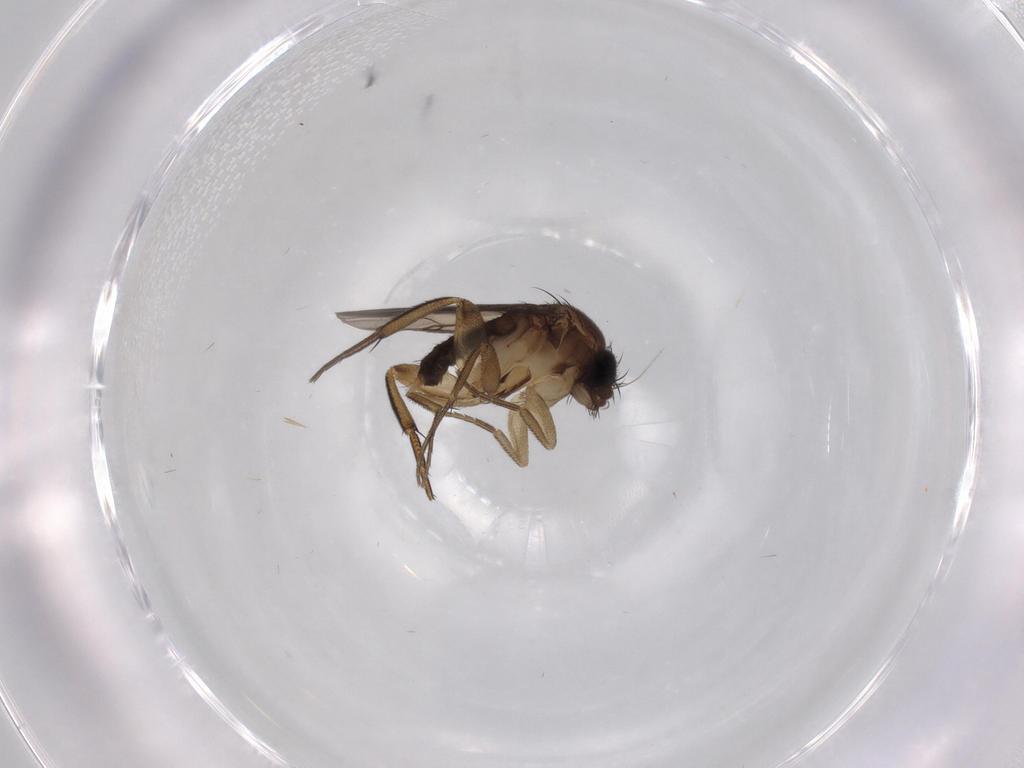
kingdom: Animalia
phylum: Arthropoda
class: Insecta
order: Diptera
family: Phoridae
